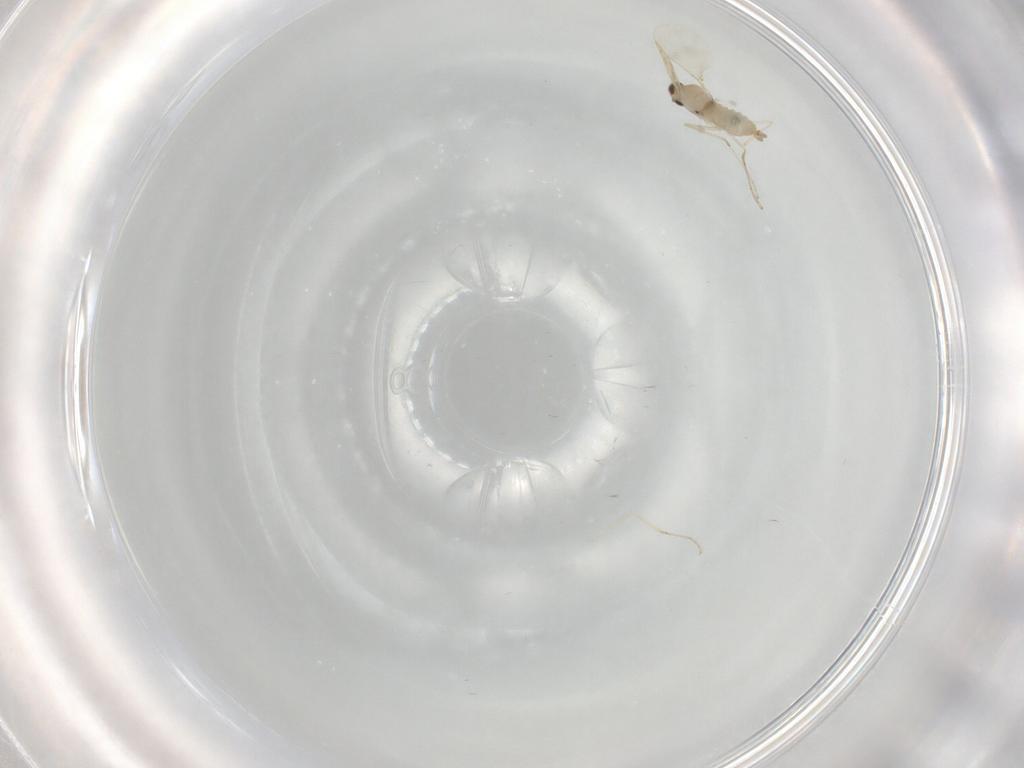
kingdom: Animalia
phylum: Arthropoda
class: Insecta
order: Diptera
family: Cecidomyiidae
